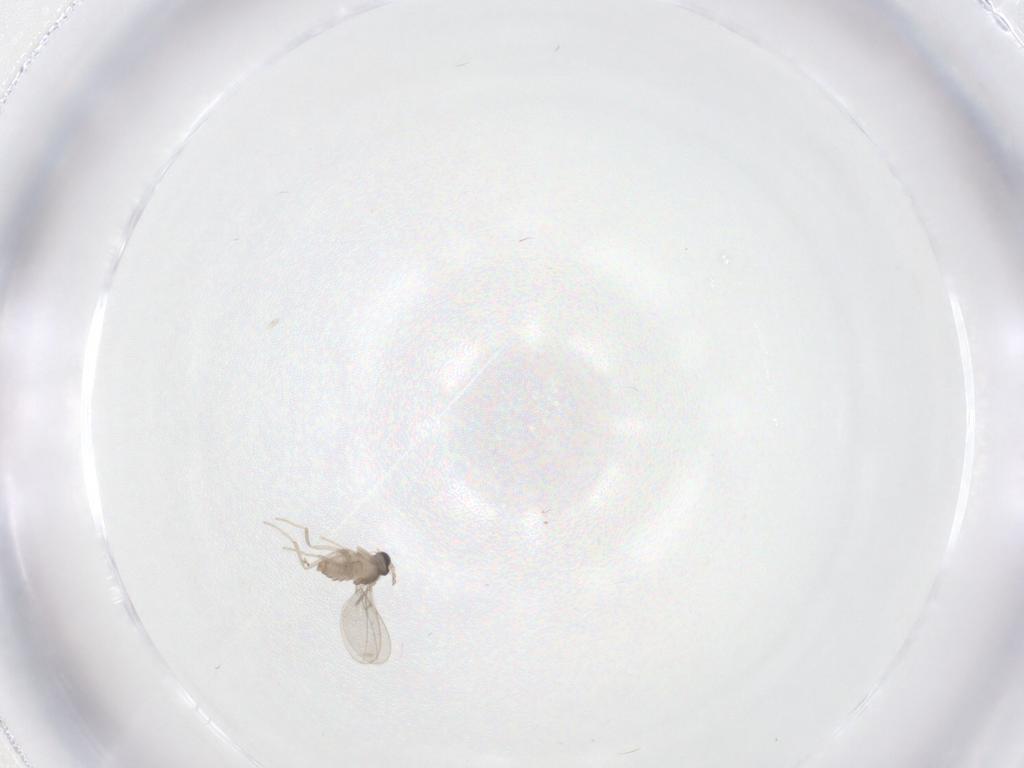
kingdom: Animalia
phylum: Arthropoda
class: Insecta
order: Diptera
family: Cecidomyiidae
